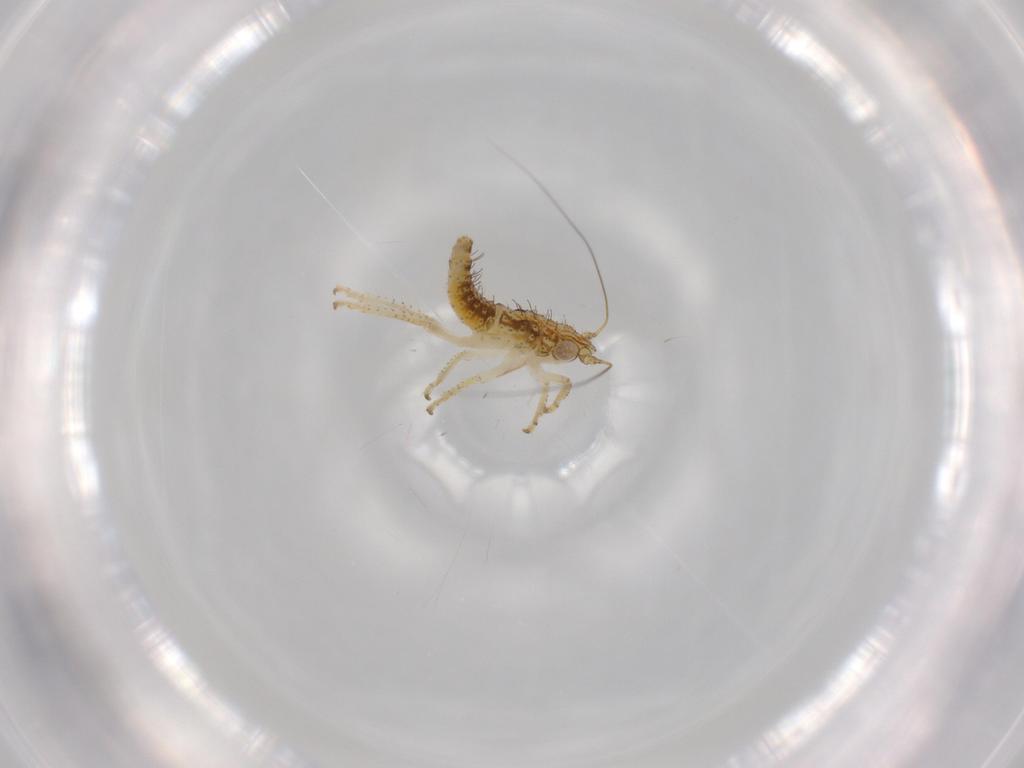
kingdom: Animalia
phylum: Arthropoda
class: Insecta
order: Hemiptera
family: Cicadellidae
